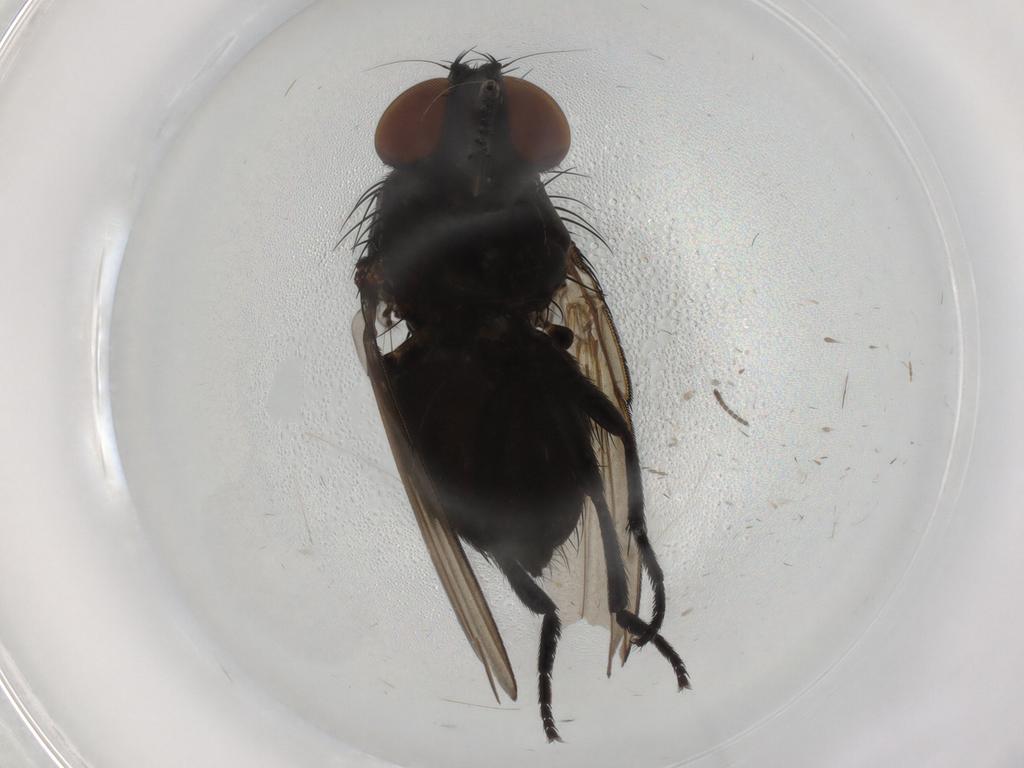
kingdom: Animalia
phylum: Arthropoda
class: Insecta
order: Diptera
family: Milichiidae
